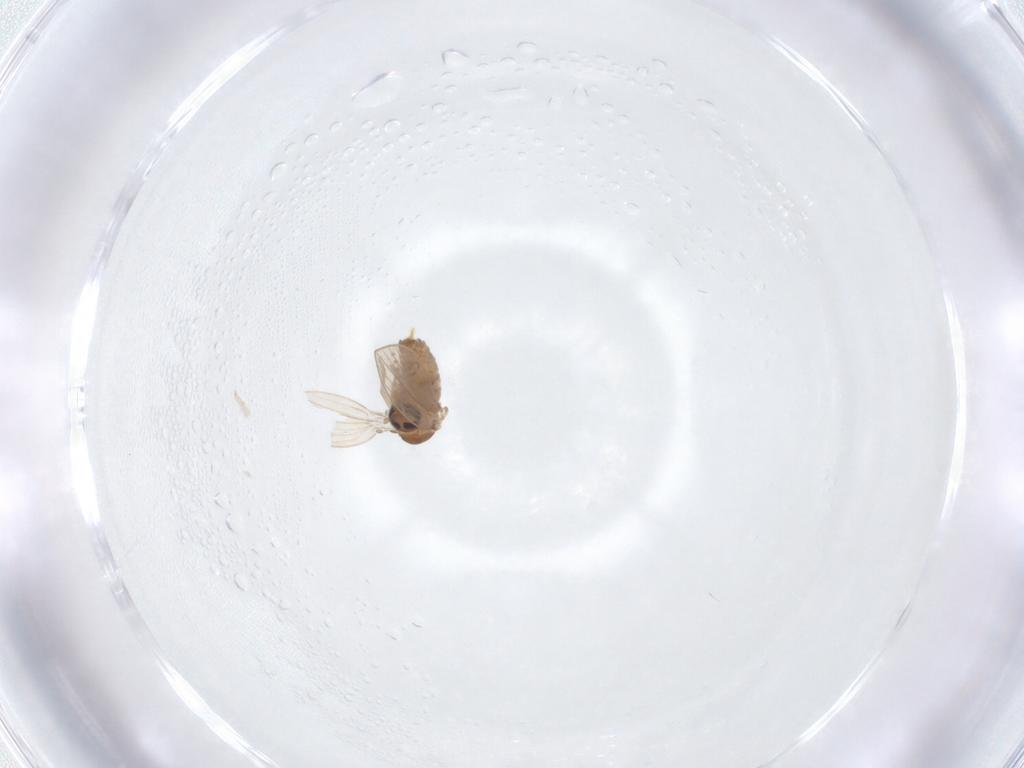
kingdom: Animalia
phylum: Arthropoda
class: Insecta
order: Diptera
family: Psychodidae
